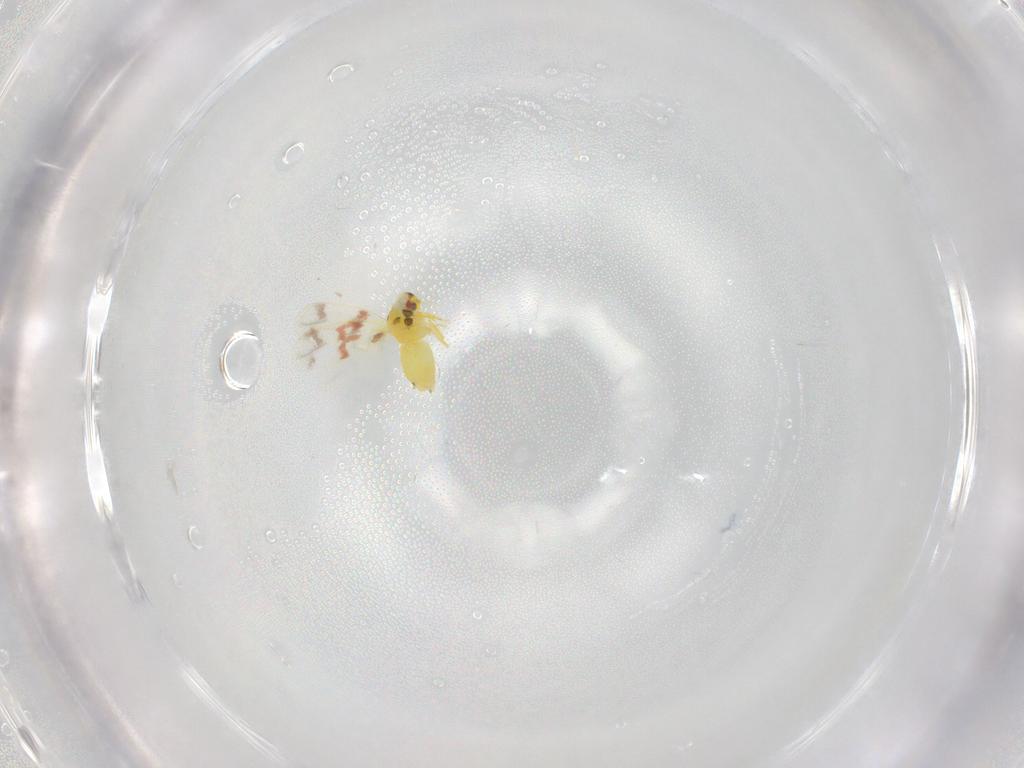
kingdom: Animalia
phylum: Arthropoda
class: Insecta
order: Hemiptera
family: Aleyrodidae
